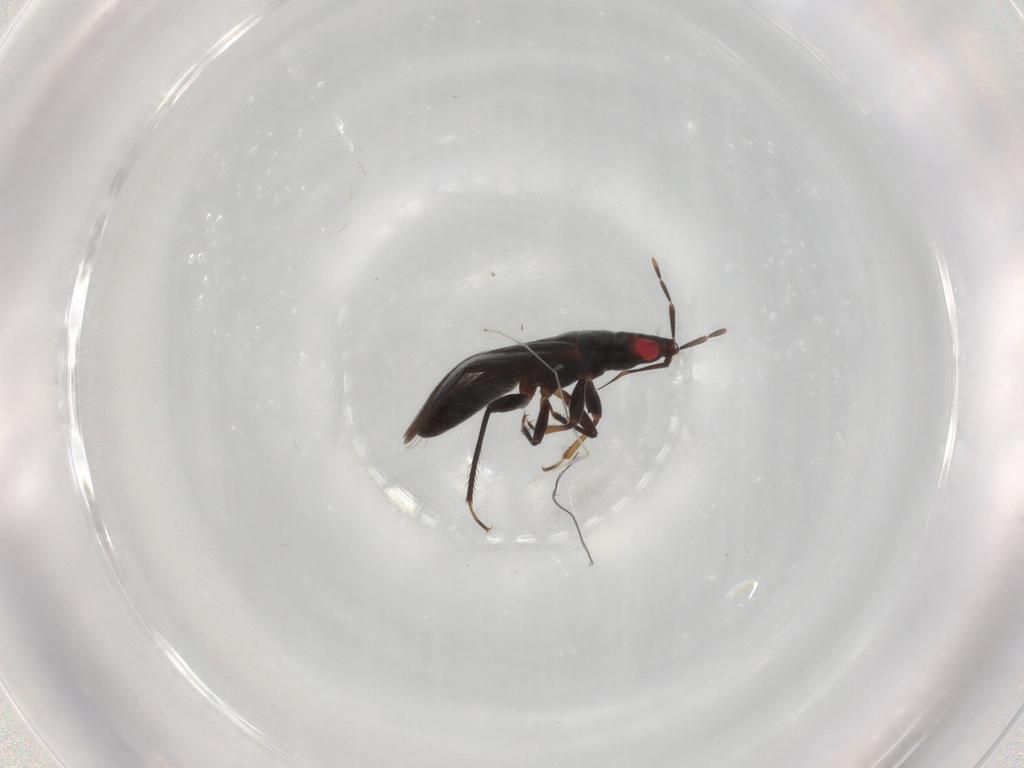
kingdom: Animalia
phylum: Arthropoda
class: Insecta
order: Hemiptera
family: Anthocoridae
